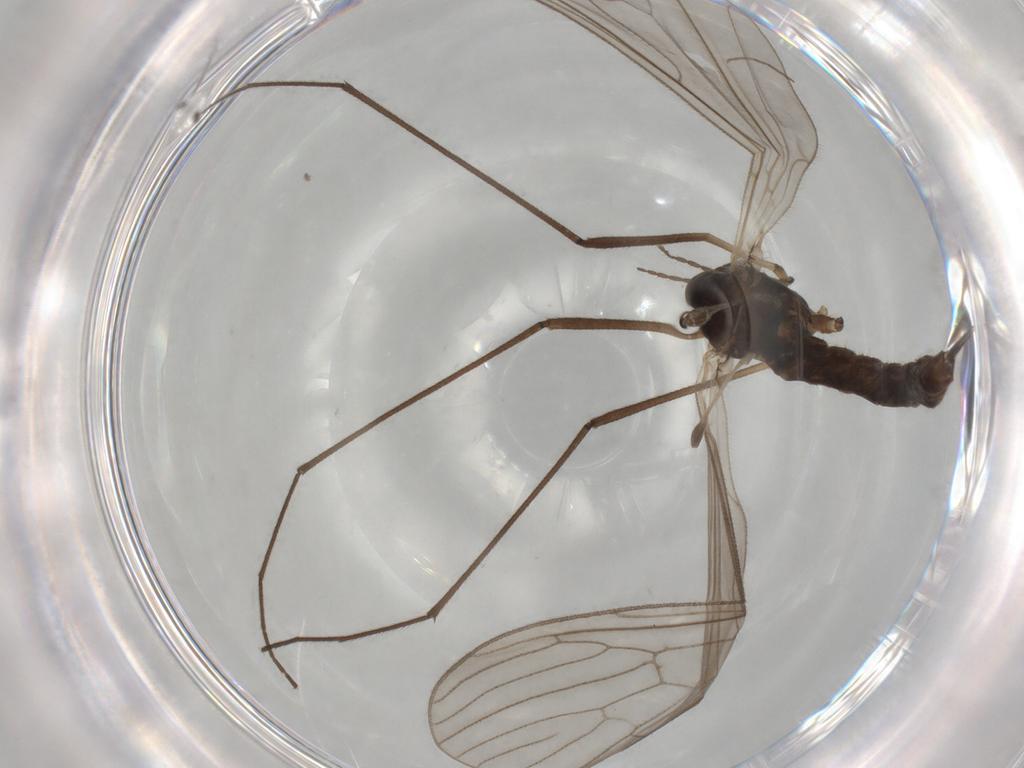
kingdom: Animalia
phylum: Arthropoda
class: Insecta
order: Diptera
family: Trichoceridae
